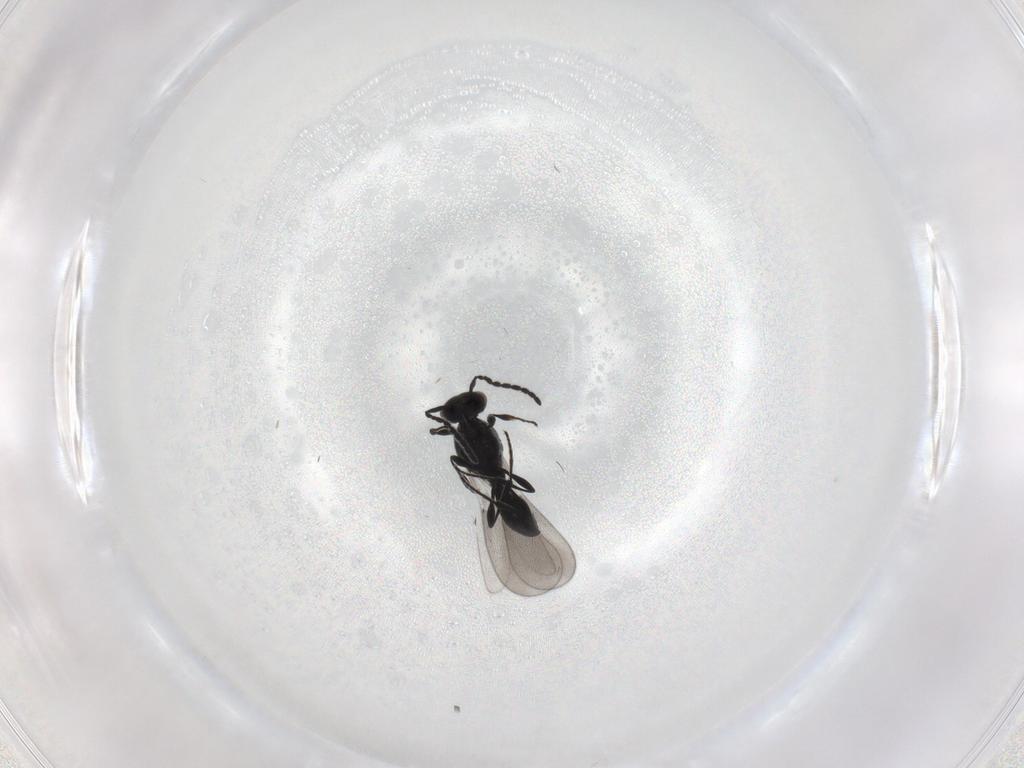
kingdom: Animalia
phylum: Arthropoda
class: Insecta
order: Diptera
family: Mythicomyiidae
